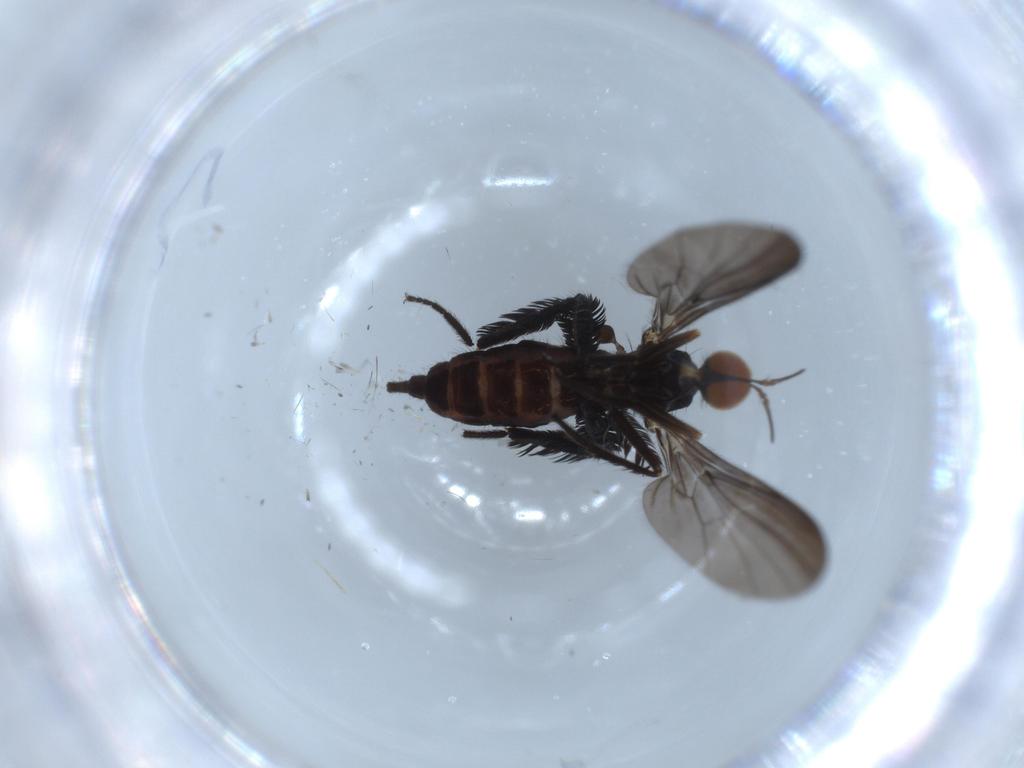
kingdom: Animalia
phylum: Arthropoda
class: Insecta
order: Diptera
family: Empididae
